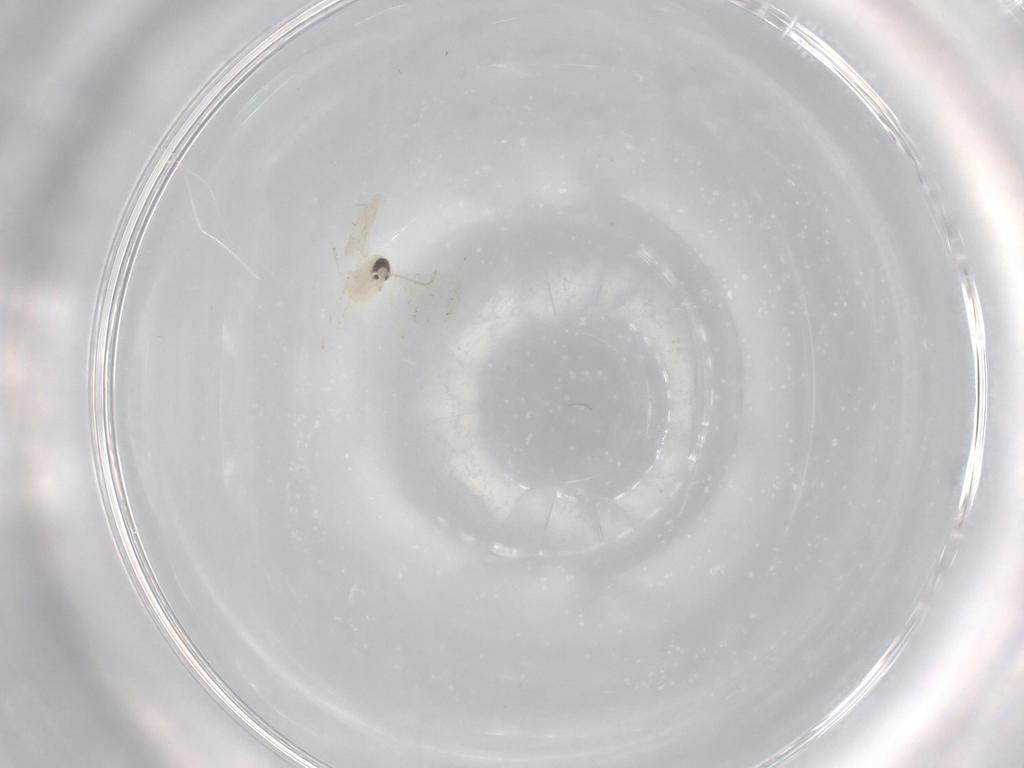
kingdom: Animalia
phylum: Arthropoda
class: Insecta
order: Diptera
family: Cecidomyiidae
